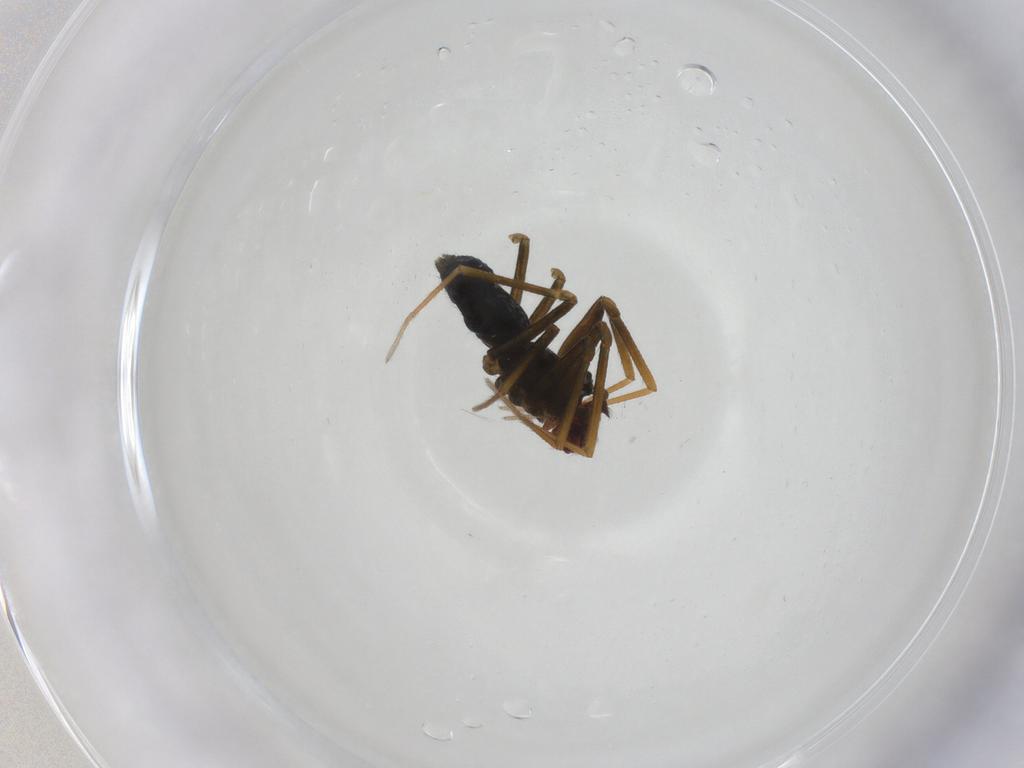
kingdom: Animalia
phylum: Arthropoda
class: Arachnida
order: Araneae
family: Linyphiidae
